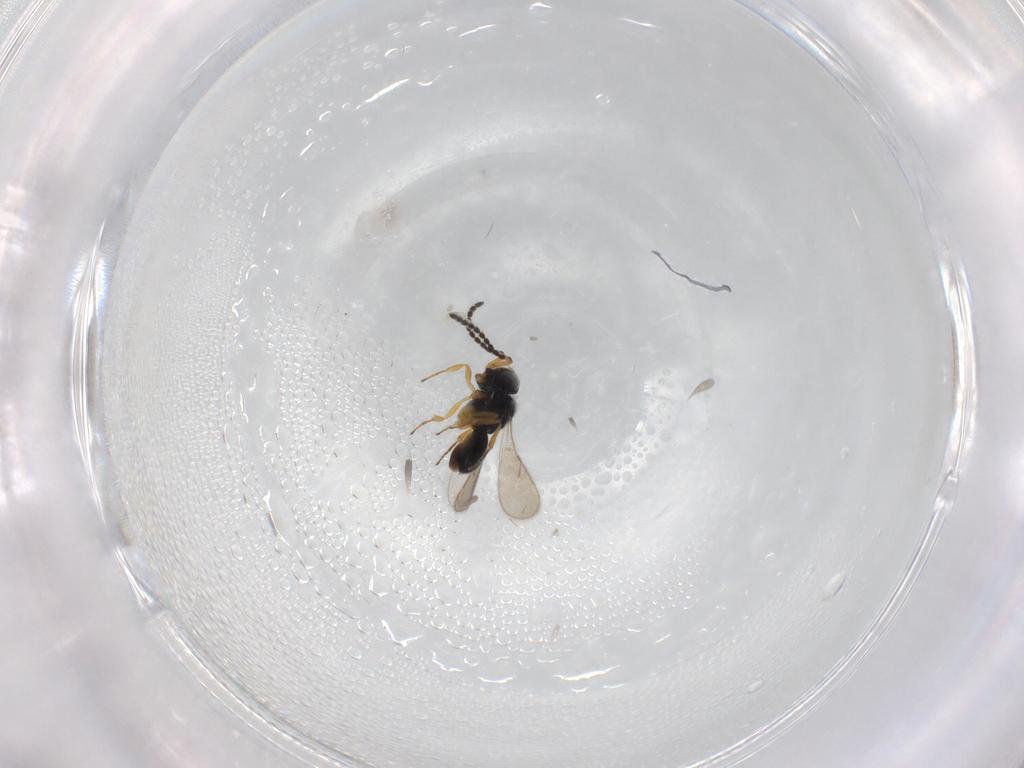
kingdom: Animalia
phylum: Arthropoda
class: Insecta
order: Hymenoptera
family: Scelionidae
